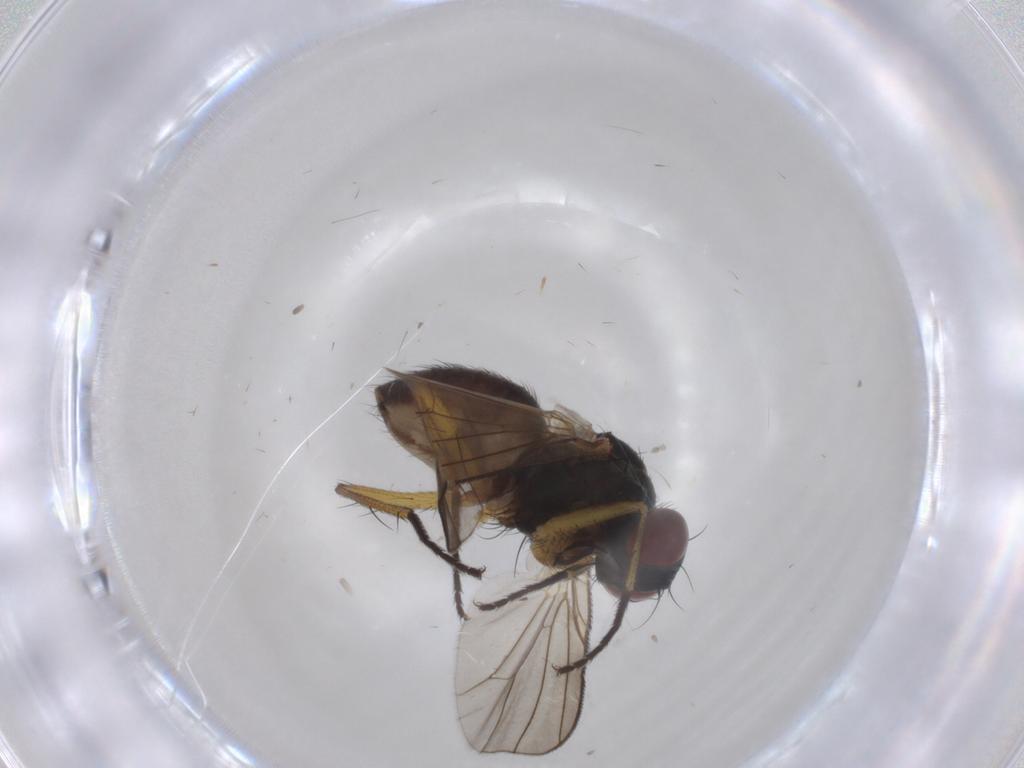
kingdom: Animalia
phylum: Arthropoda
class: Insecta
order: Diptera
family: Muscidae
